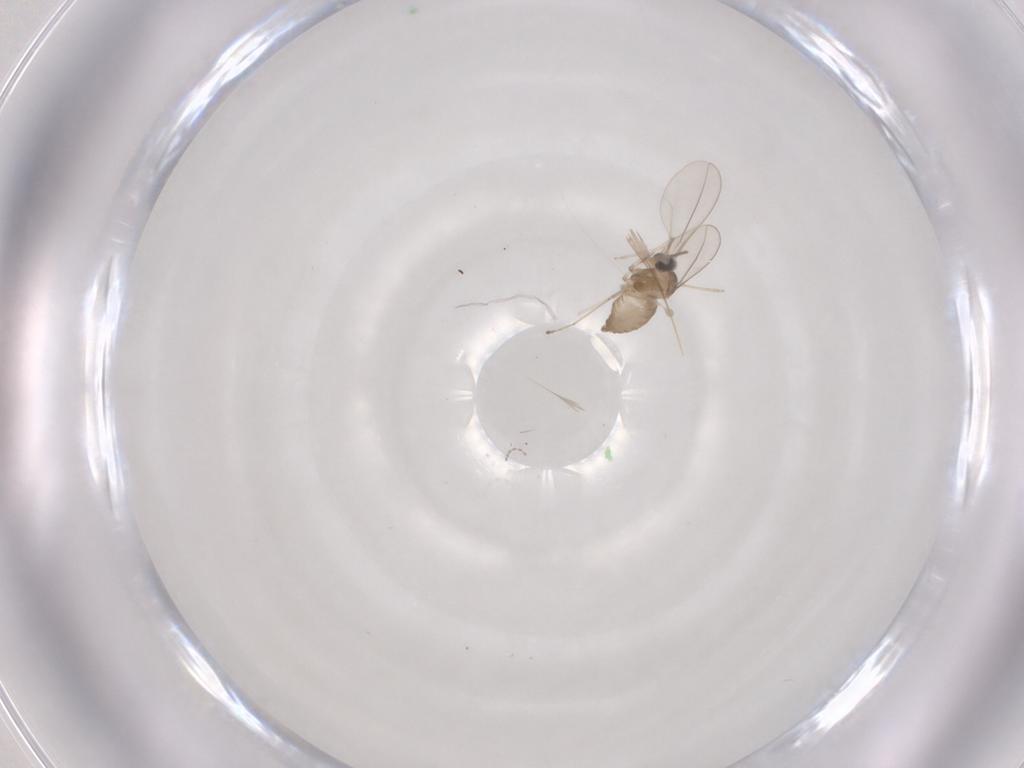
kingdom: Animalia
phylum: Arthropoda
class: Insecta
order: Diptera
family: Cecidomyiidae
